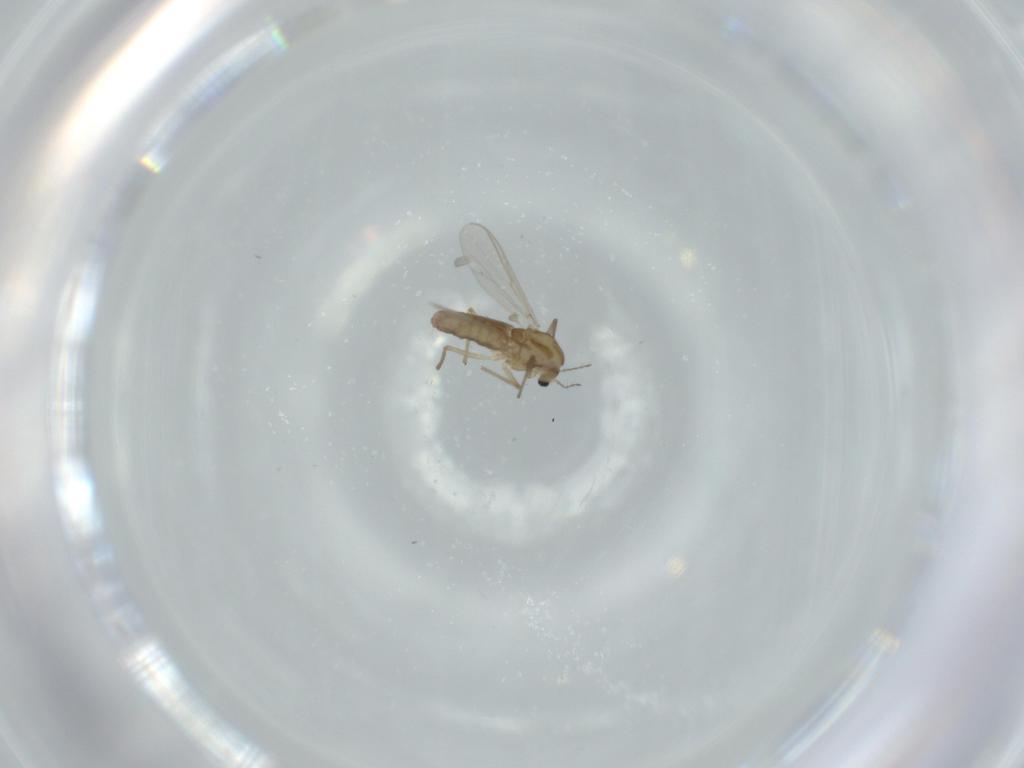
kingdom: Animalia
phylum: Arthropoda
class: Insecta
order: Diptera
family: Chironomidae
